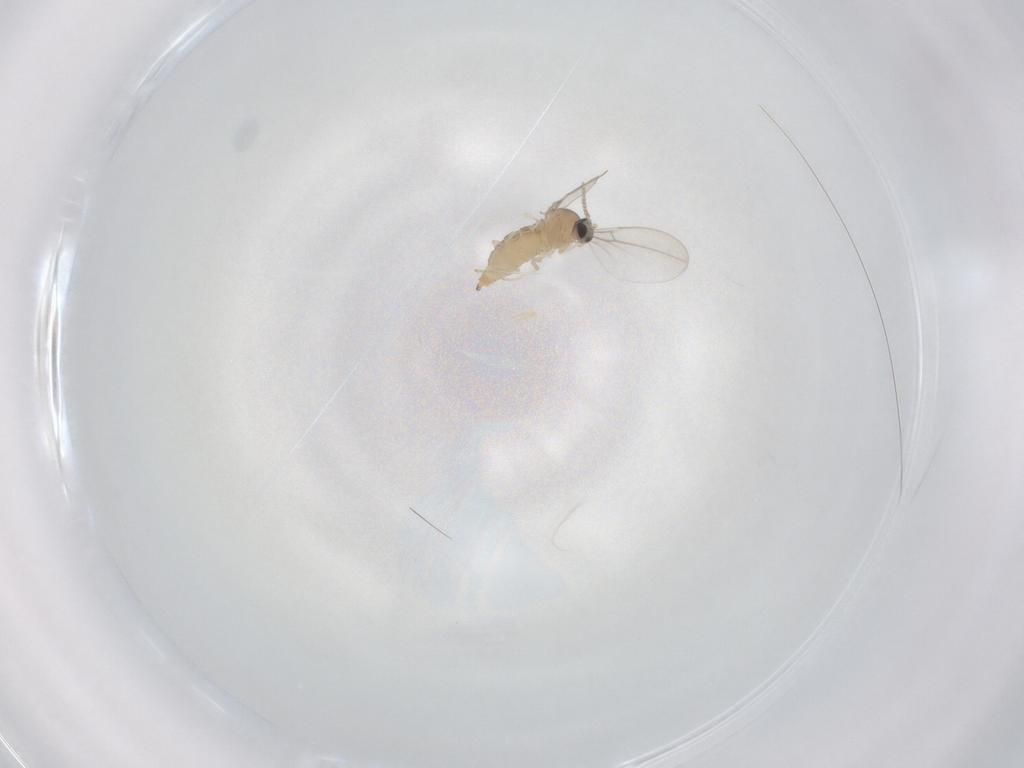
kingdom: Animalia
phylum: Arthropoda
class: Insecta
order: Diptera
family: Cecidomyiidae
